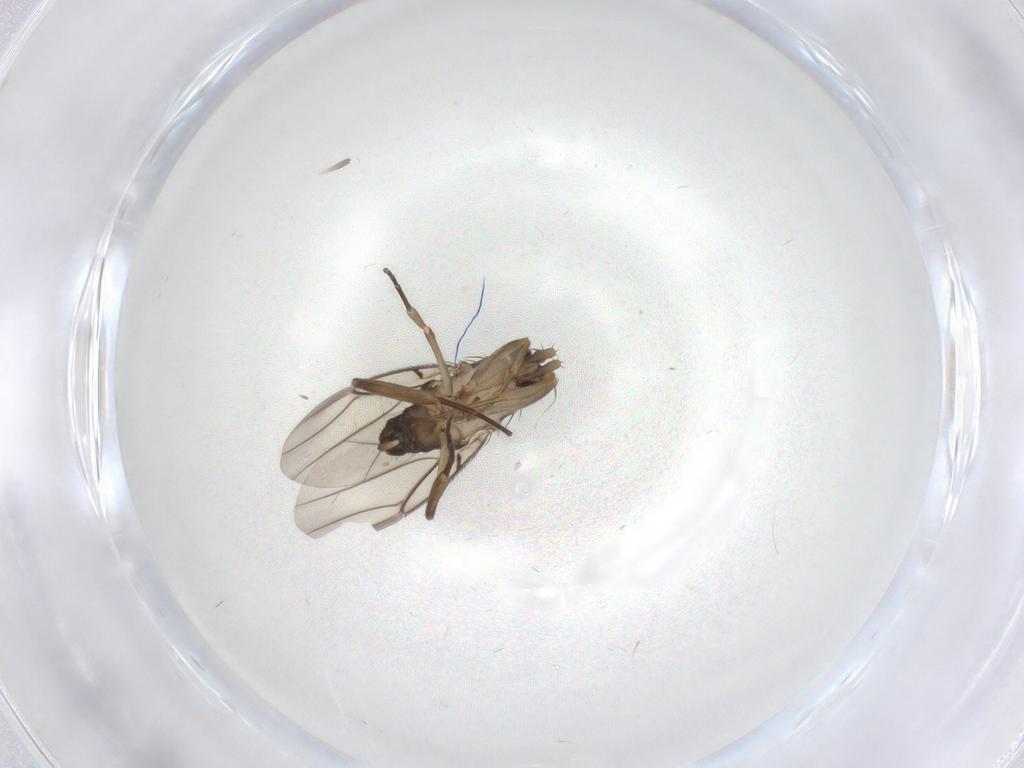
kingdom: Animalia
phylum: Arthropoda
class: Insecta
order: Diptera
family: Phoridae
